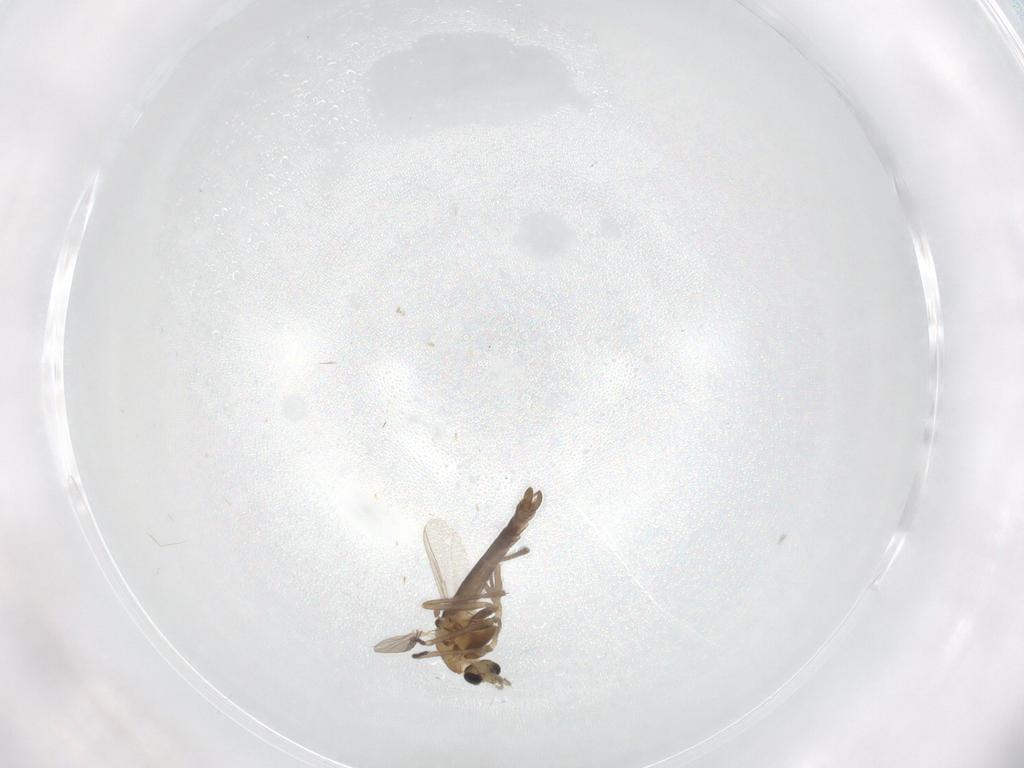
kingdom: Animalia
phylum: Arthropoda
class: Insecta
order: Diptera
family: Chironomidae
